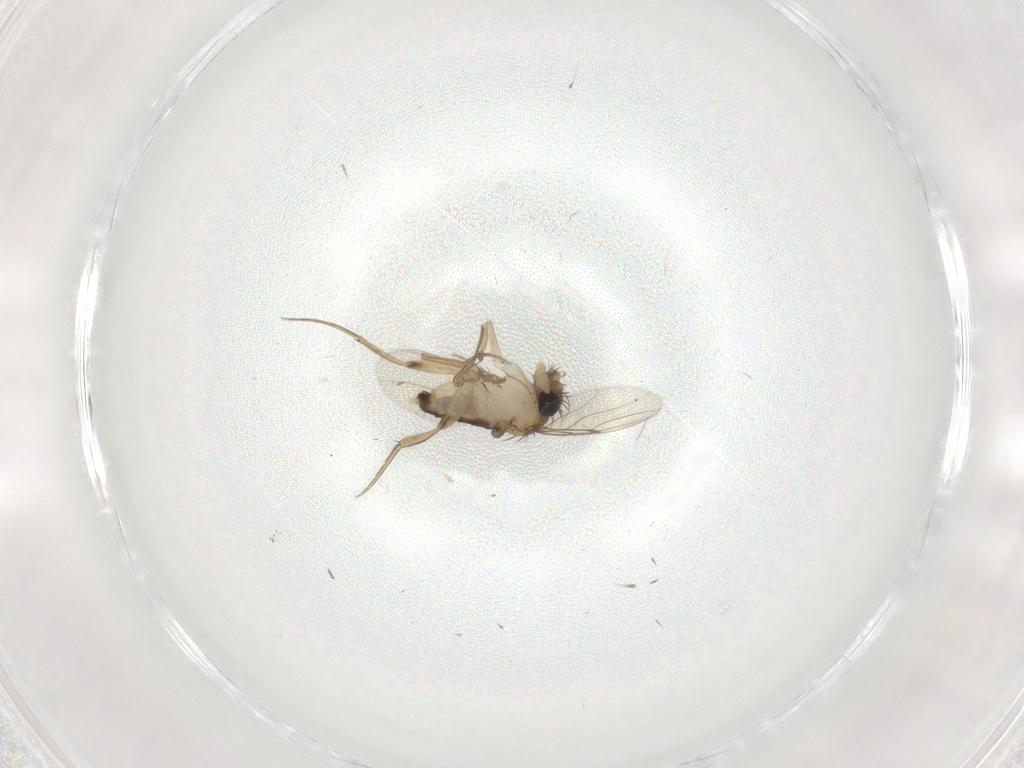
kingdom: Animalia
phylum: Arthropoda
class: Insecta
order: Diptera
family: Phoridae
